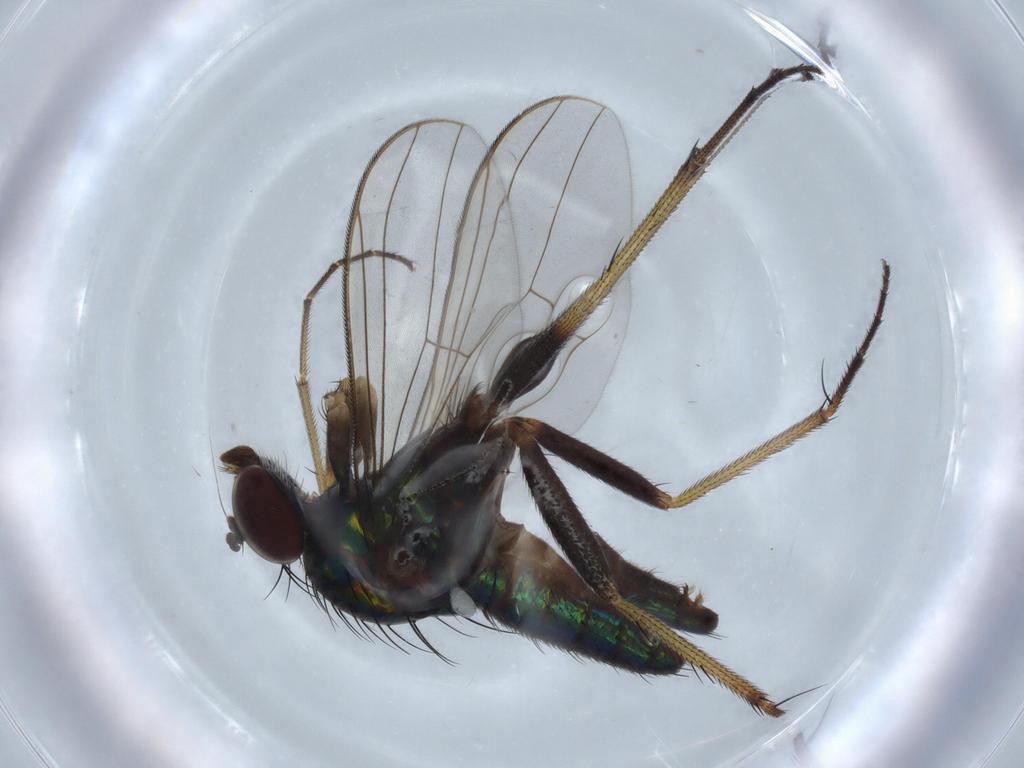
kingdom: Animalia
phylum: Arthropoda
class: Insecta
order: Diptera
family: Dolichopodidae
